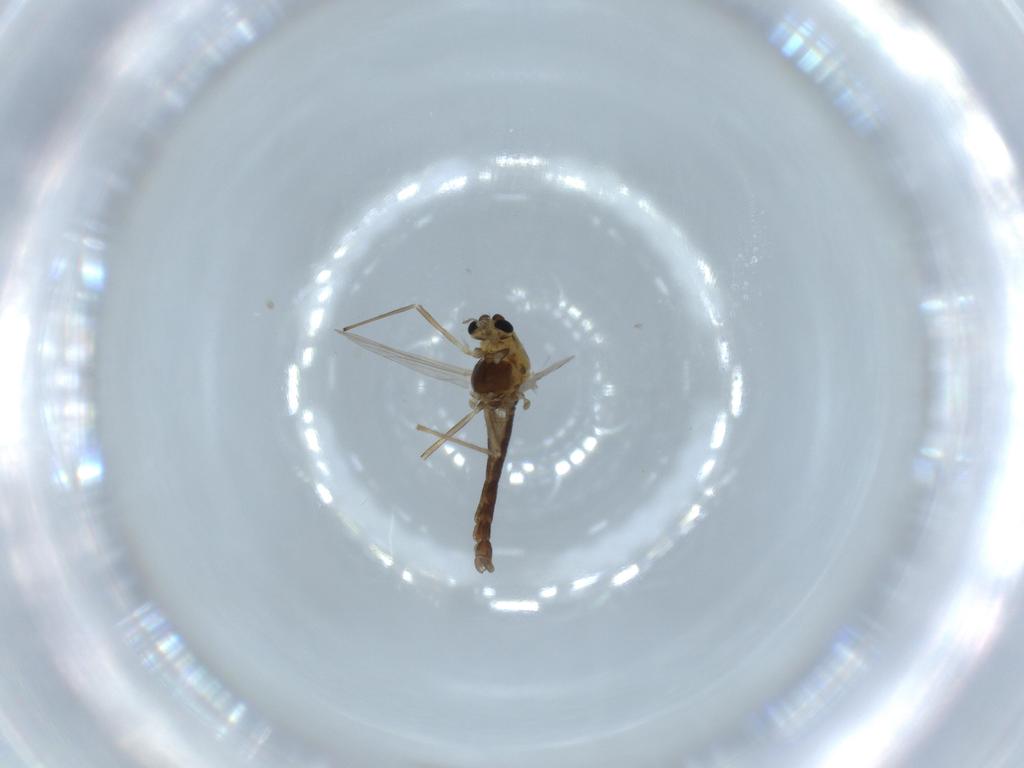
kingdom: Animalia
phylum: Arthropoda
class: Insecta
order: Diptera
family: Chironomidae
